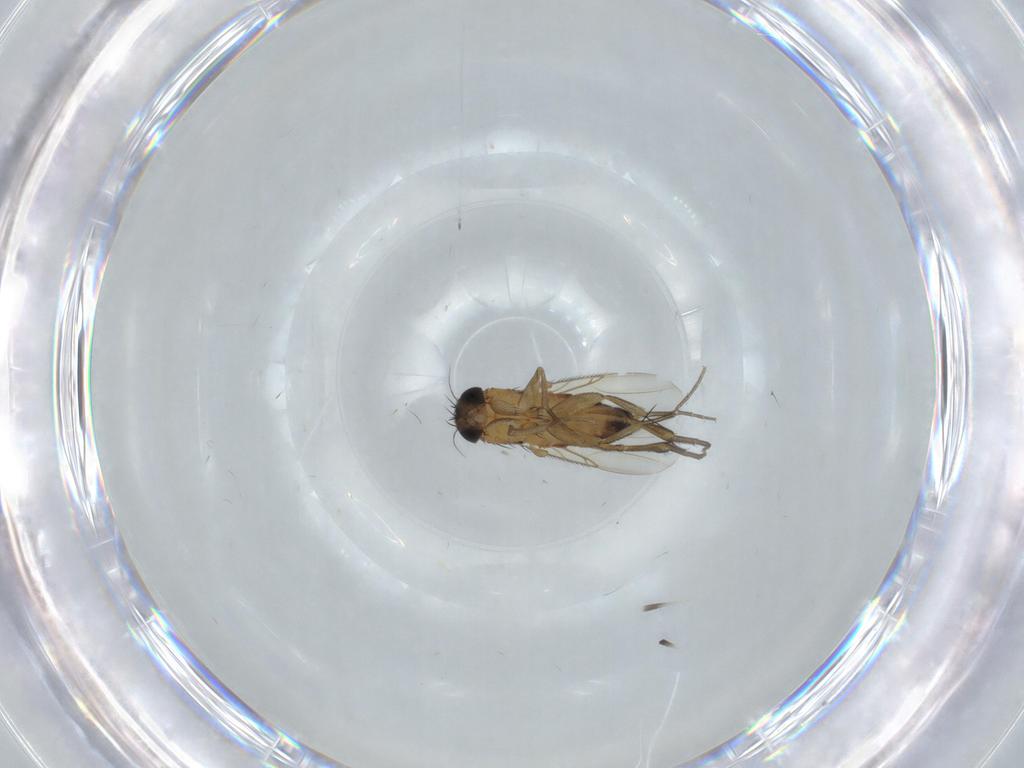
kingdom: Animalia
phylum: Arthropoda
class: Insecta
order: Diptera
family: Phoridae
